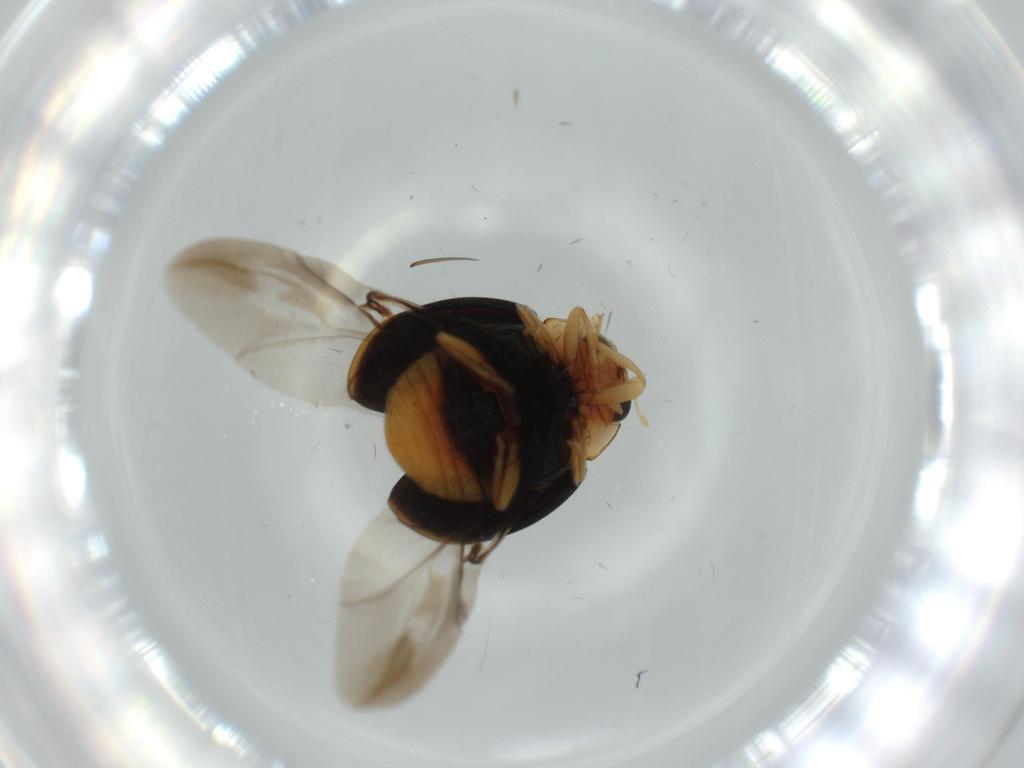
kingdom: Animalia
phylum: Arthropoda
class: Insecta
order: Coleoptera
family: Coccinellidae
